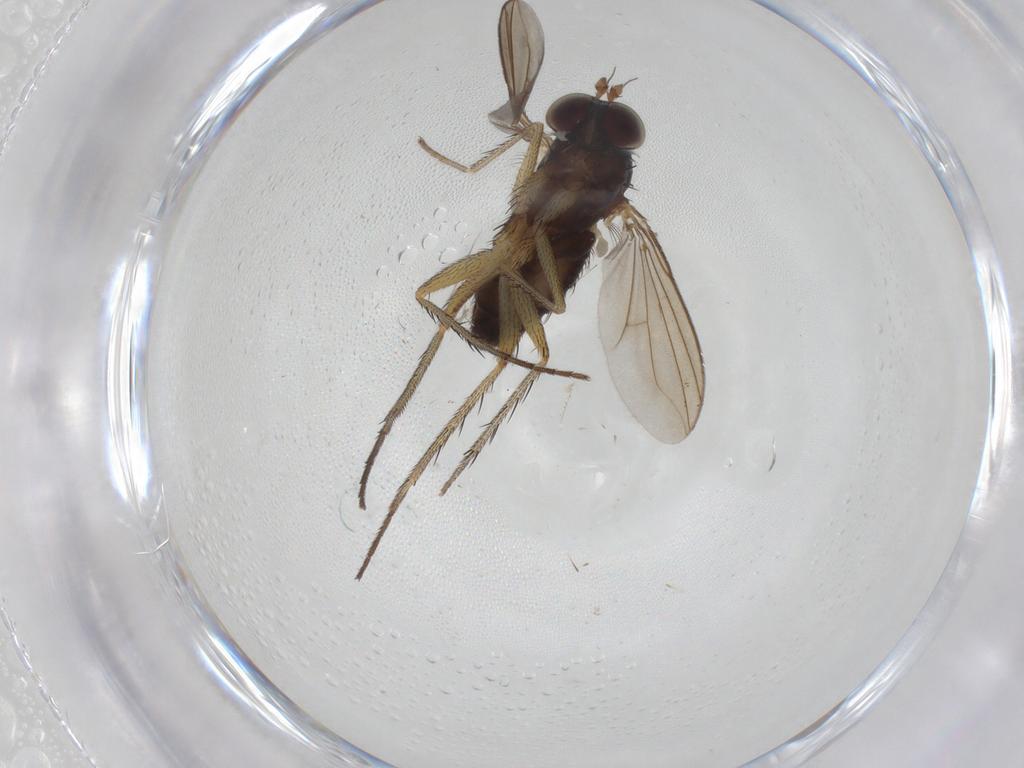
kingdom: Animalia
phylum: Arthropoda
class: Insecta
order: Diptera
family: Dolichopodidae
